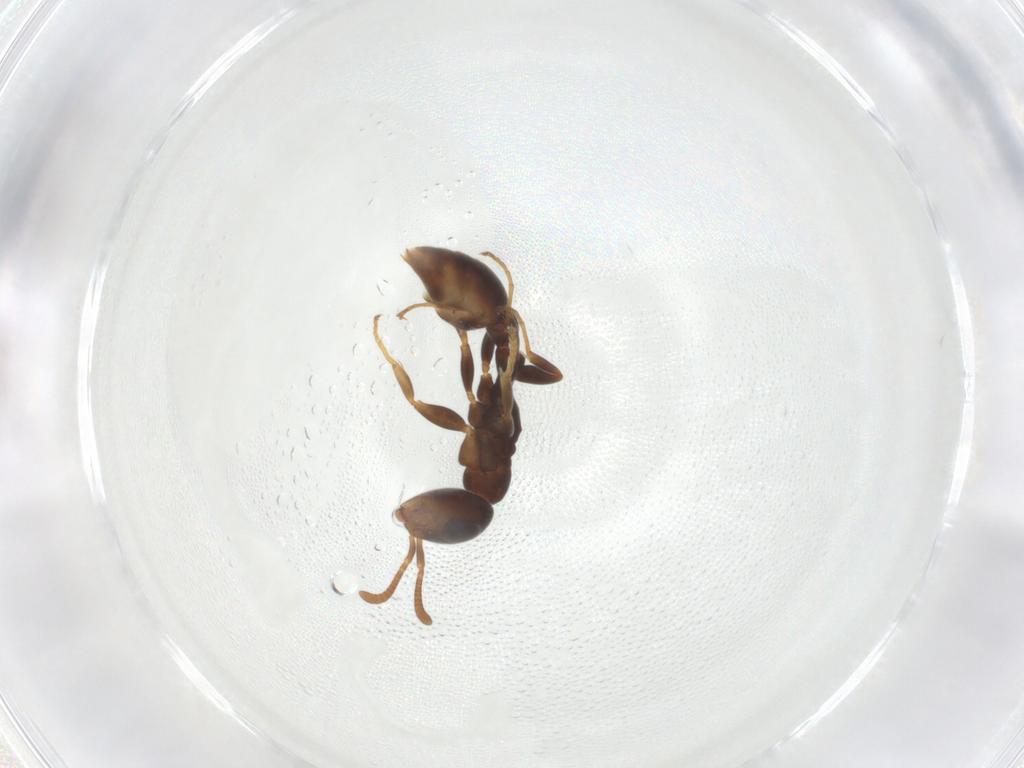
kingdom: Animalia
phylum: Arthropoda
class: Insecta
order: Hymenoptera
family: Formicidae
